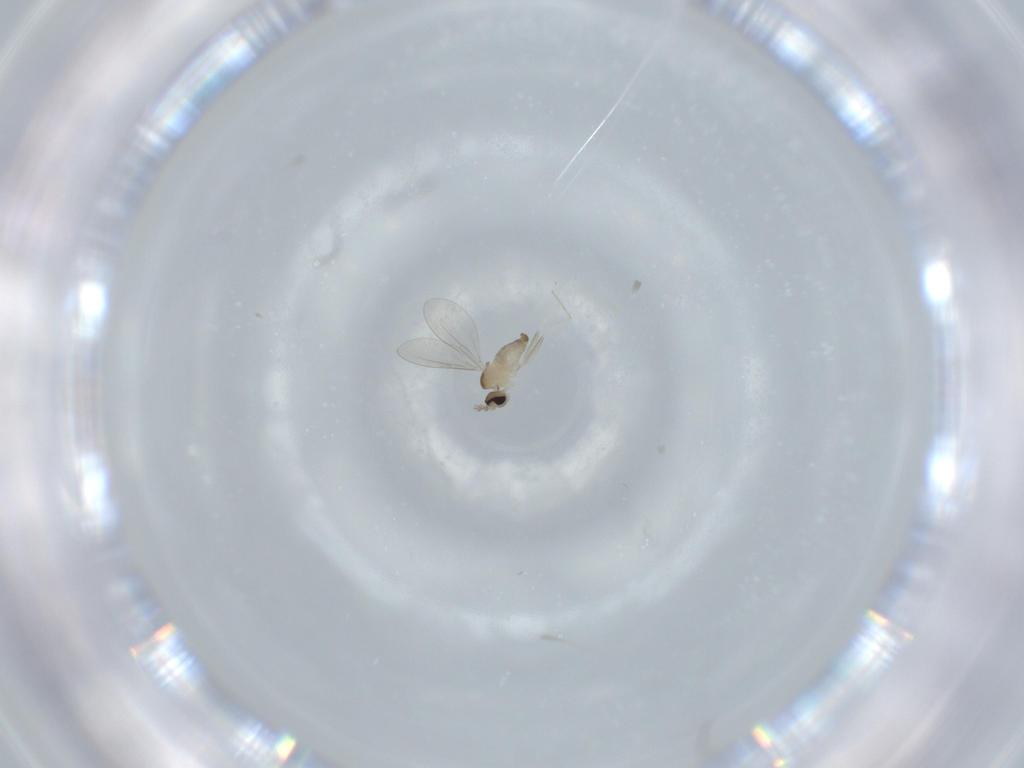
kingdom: Animalia
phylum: Arthropoda
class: Insecta
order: Diptera
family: Cecidomyiidae
